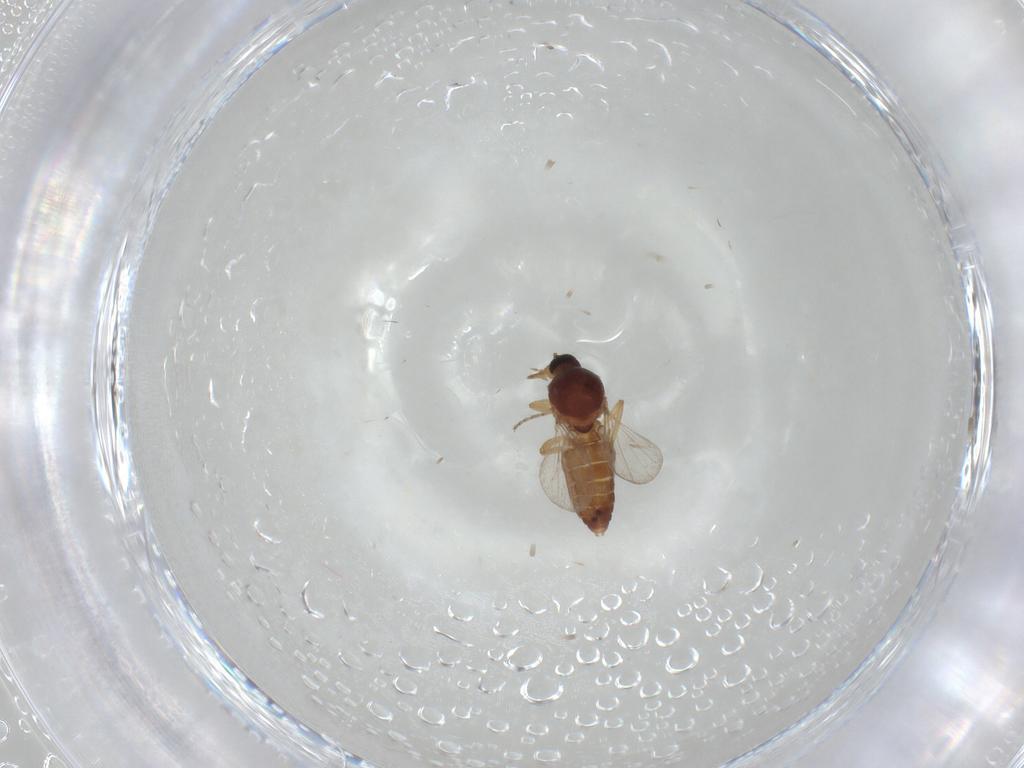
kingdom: Animalia
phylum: Arthropoda
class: Insecta
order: Diptera
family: Ceratopogonidae
